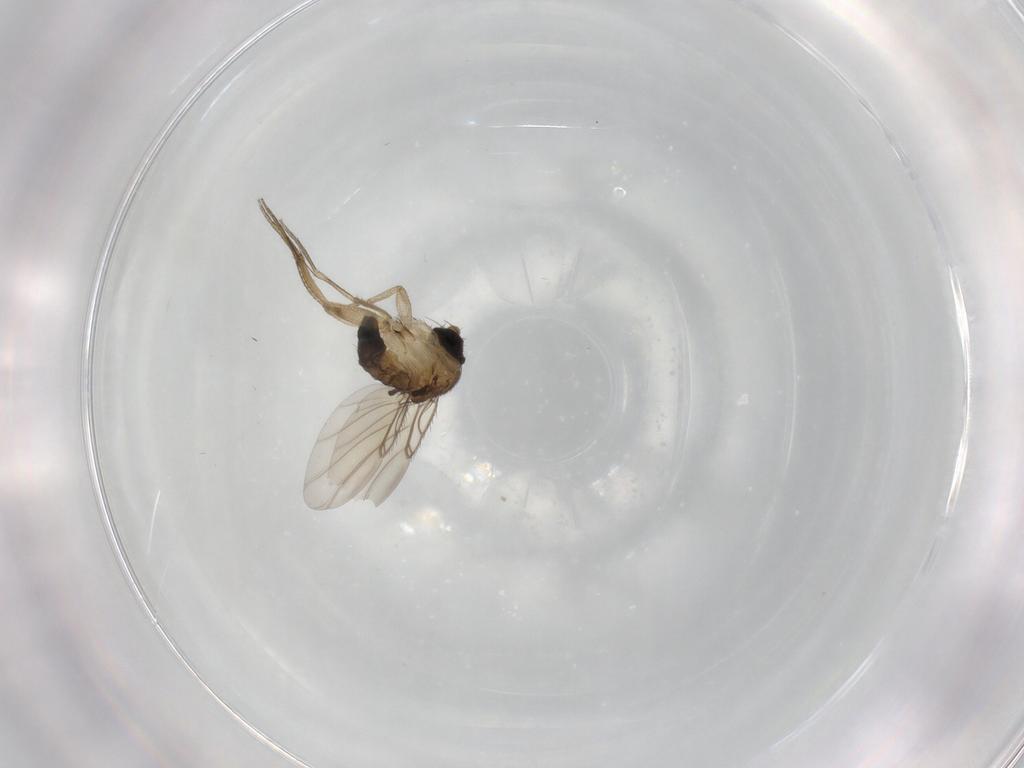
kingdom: Animalia
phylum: Arthropoda
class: Insecta
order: Diptera
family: Phoridae
